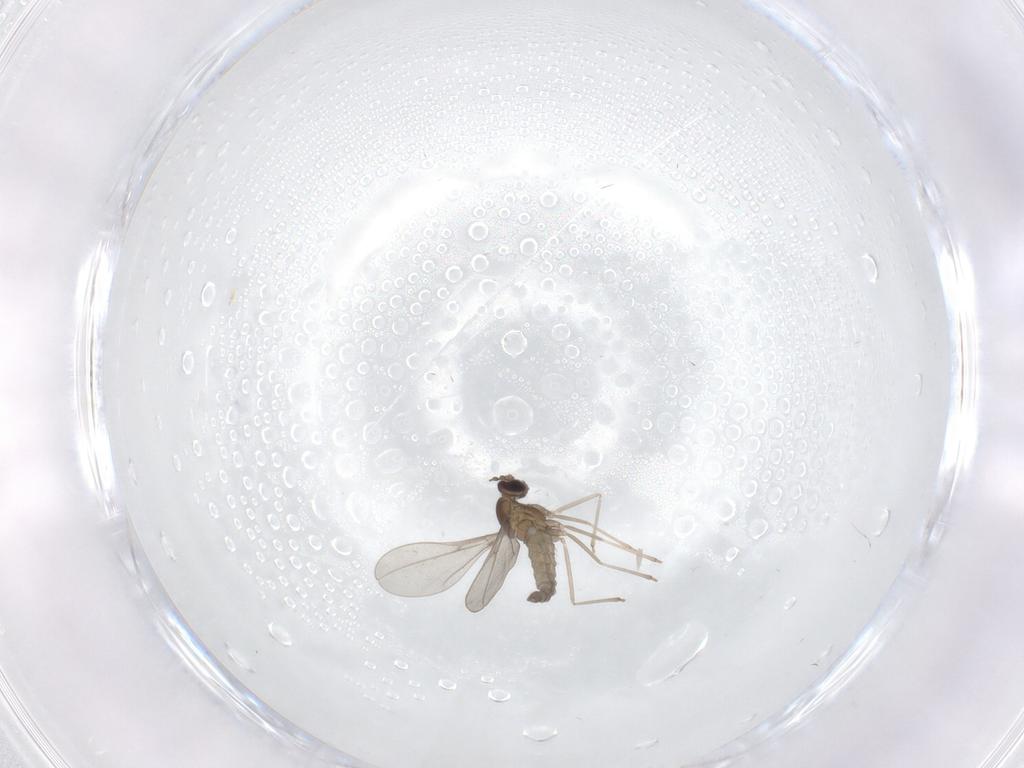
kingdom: Animalia
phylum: Arthropoda
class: Insecta
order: Diptera
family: Cecidomyiidae
